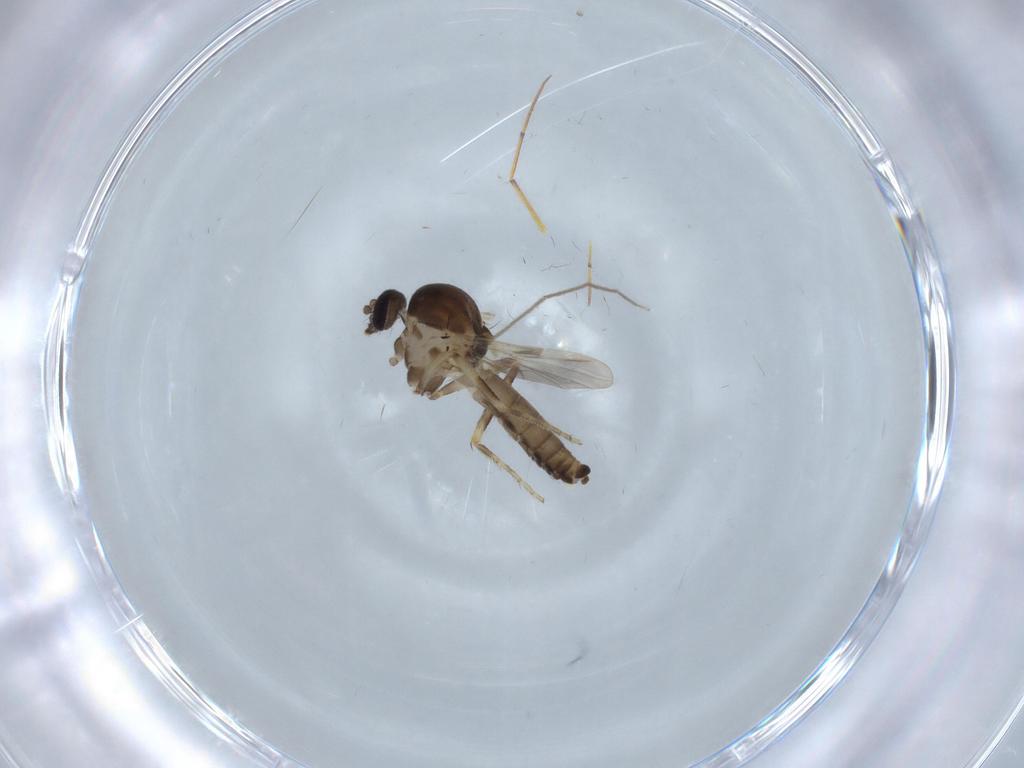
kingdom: Animalia
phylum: Arthropoda
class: Insecta
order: Diptera
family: Ceratopogonidae
